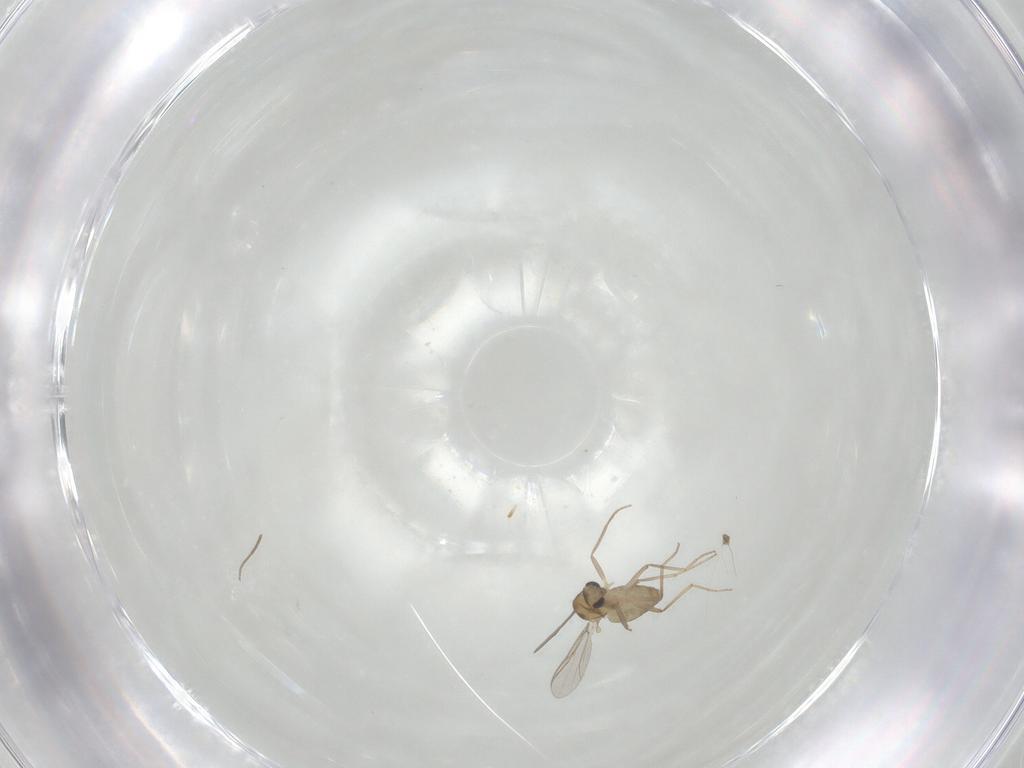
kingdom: Animalia
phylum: Arthropoda
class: Insecta
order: Diptera
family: Chironomidae
